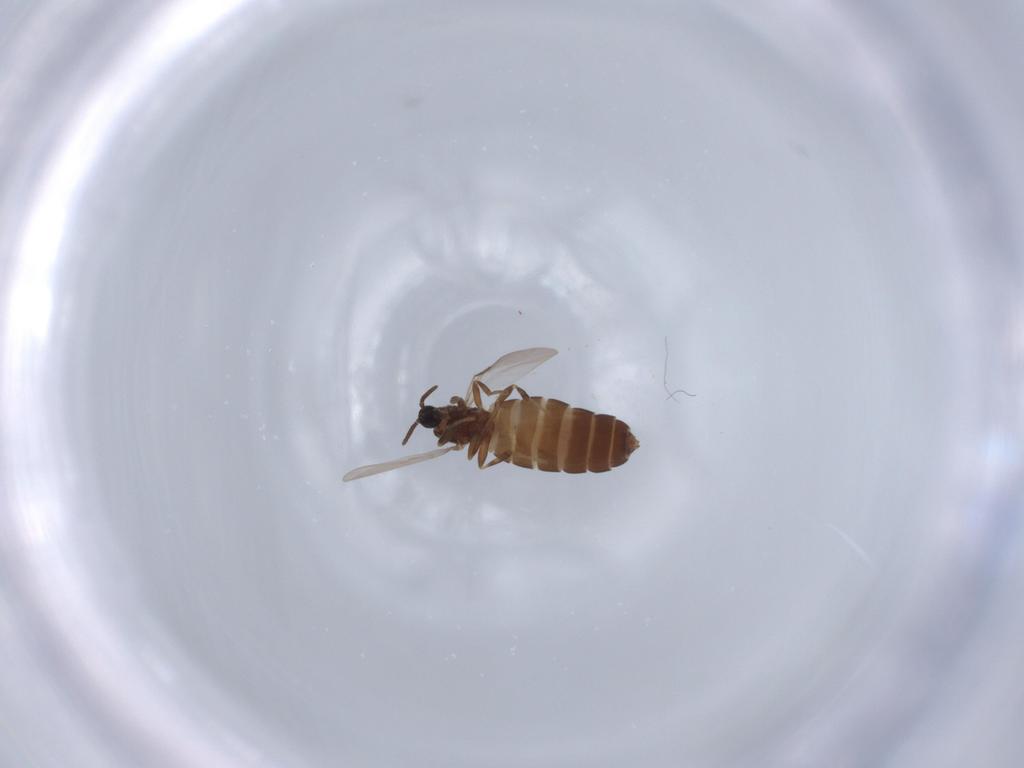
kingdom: Animalia
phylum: Arthropoda
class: Insecta
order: Diptera
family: Scatopsidae
